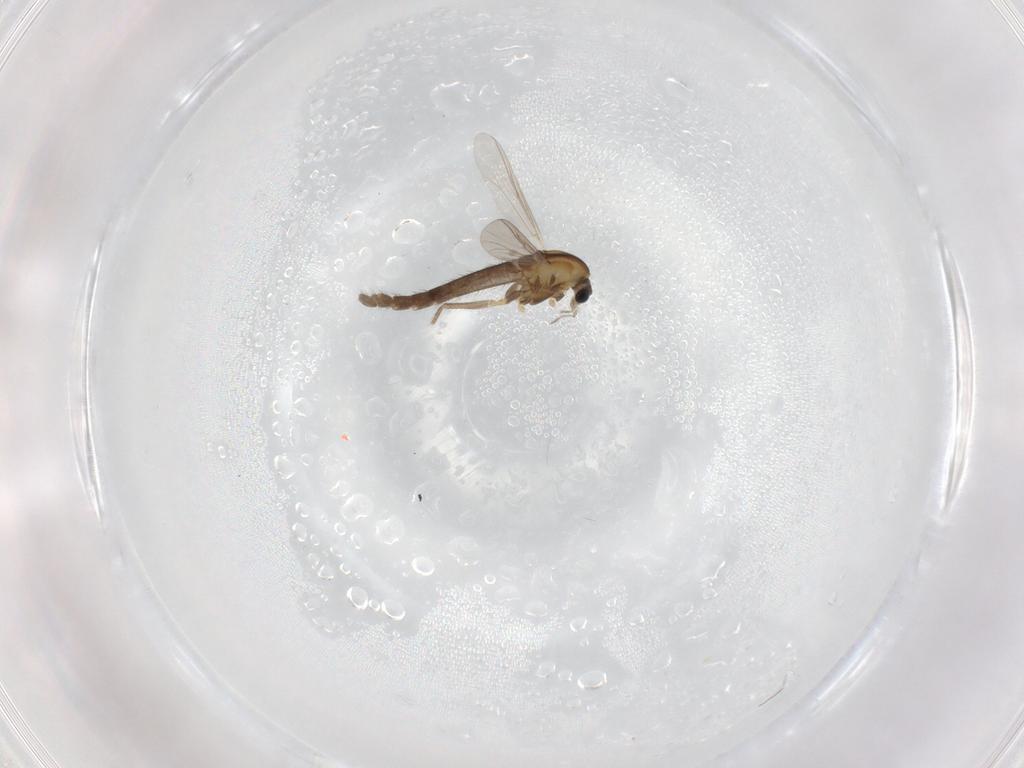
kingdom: Animalia
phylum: Arthropoda
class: Insecta
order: Diptera
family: Chironomidae
